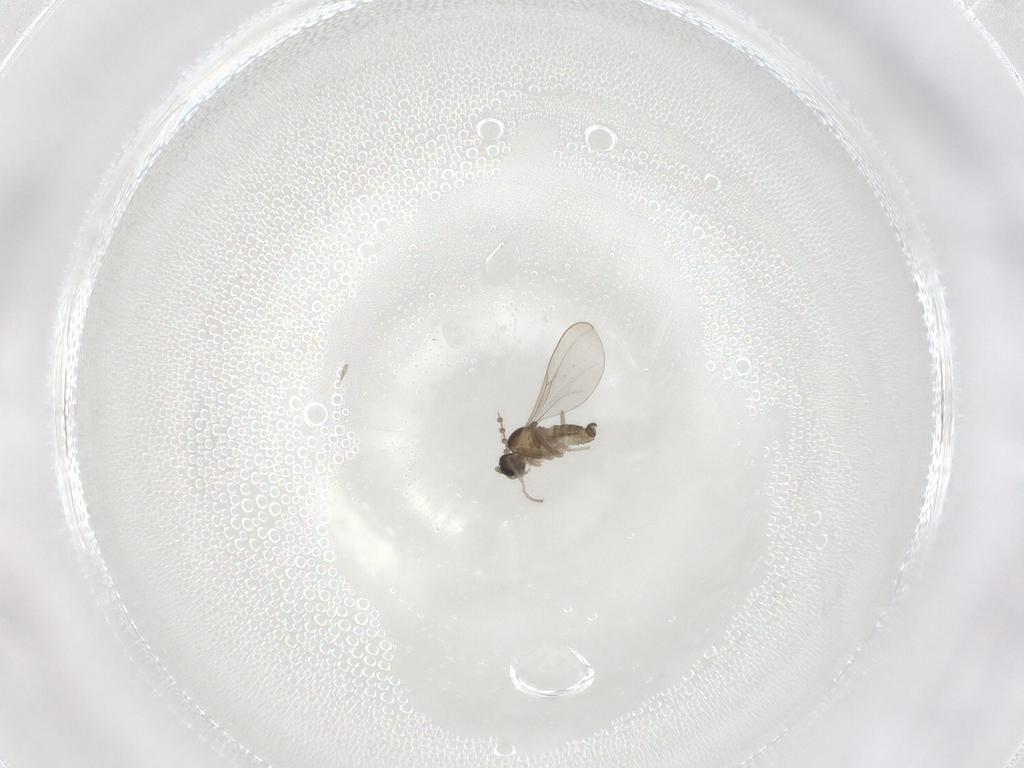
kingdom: Animalia
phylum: Arthropoda
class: Insecta
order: Diptera
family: Cecidomyiidae
